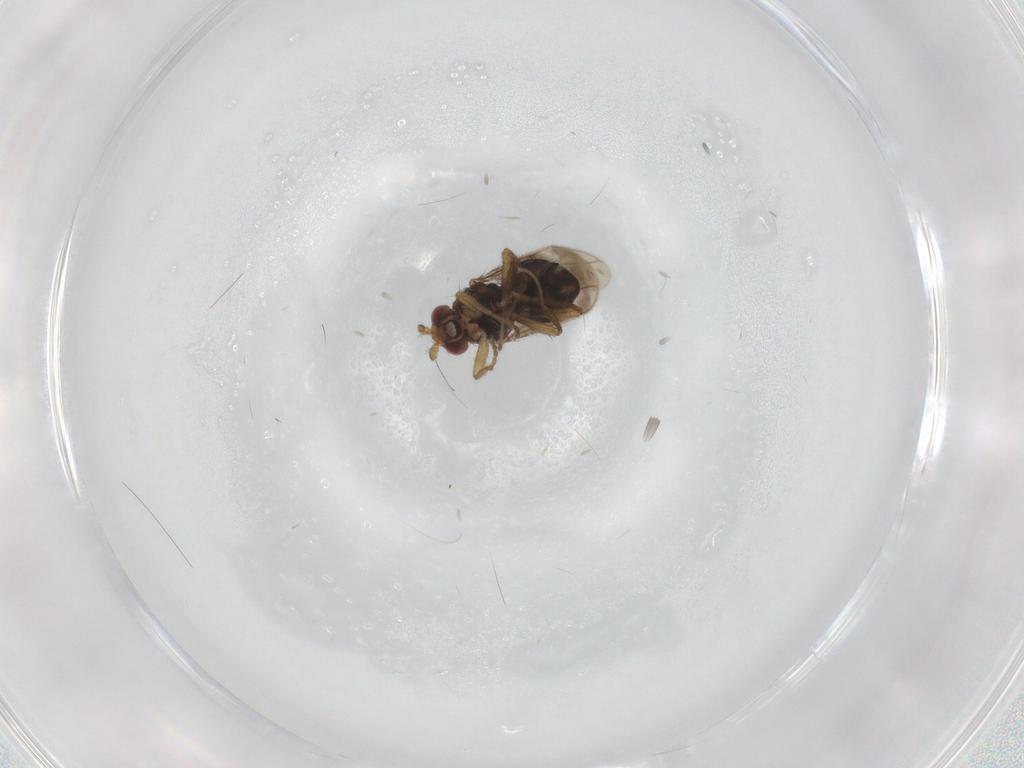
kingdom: Animalia
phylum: Arthropoda
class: Insecta
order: Diptera
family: Agromyzidae
